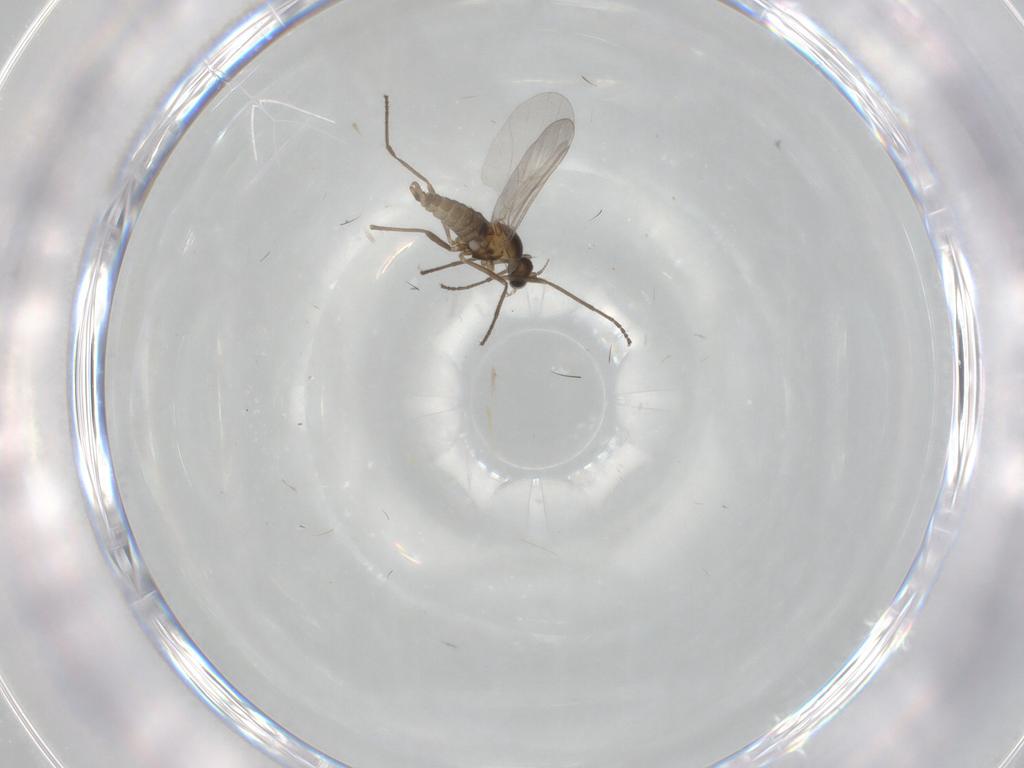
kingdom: Animalia
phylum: Arthropoda
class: Insecta
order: Diptera
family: Cecidomyiidae
